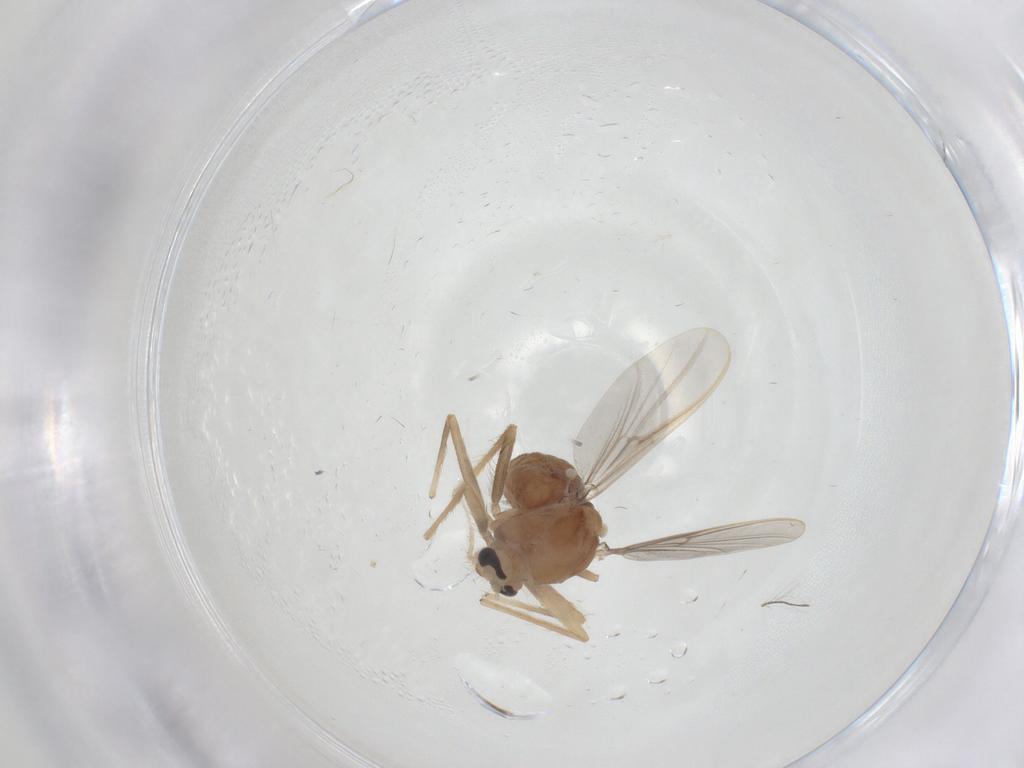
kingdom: Animalia
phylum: Arthropoda
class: Insecta
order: Diptera
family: Chironomidae
